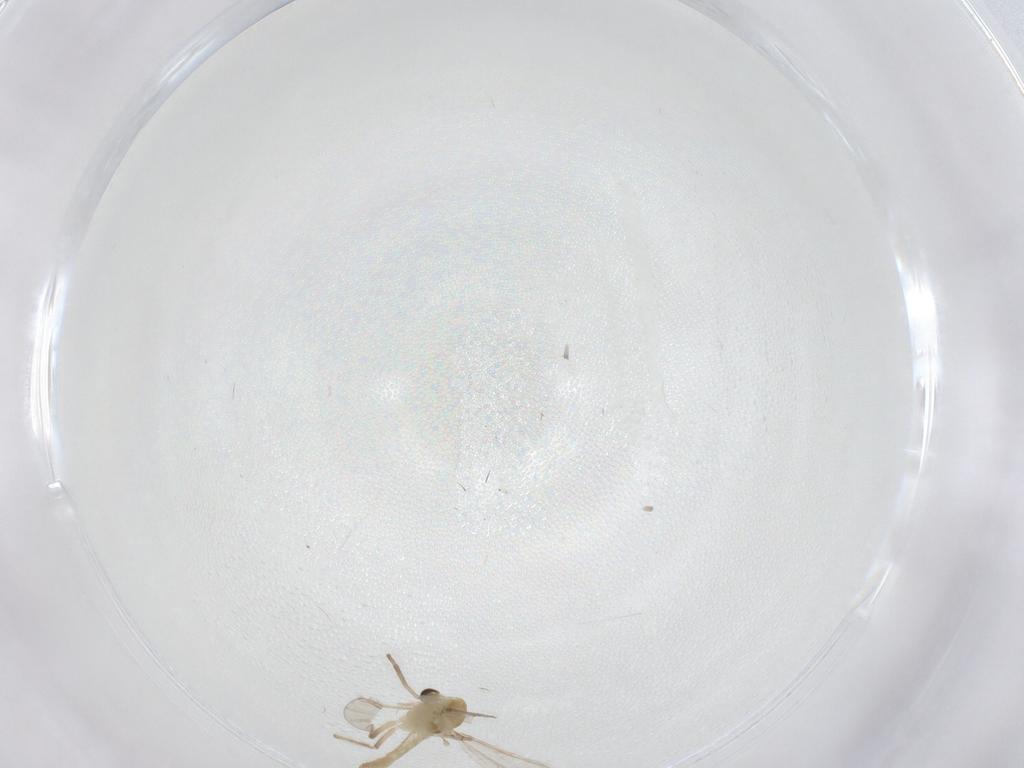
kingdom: Animalia
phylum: Arthropoda
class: Insecta
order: Diptera
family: Chironomidae
